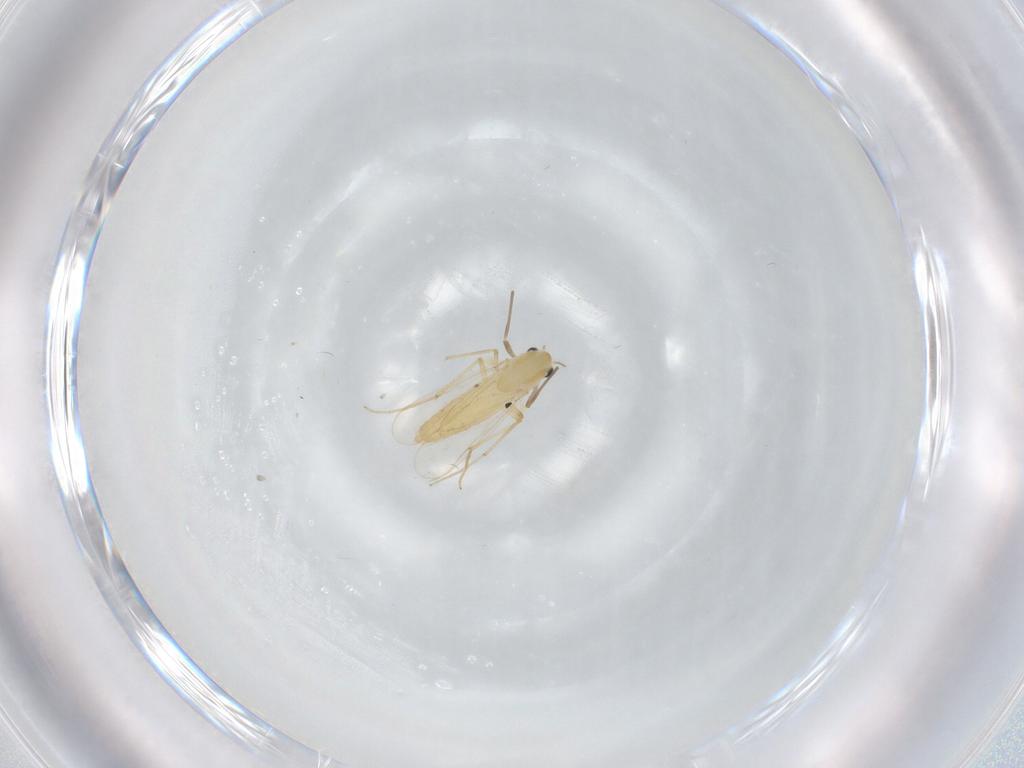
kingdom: Animalia
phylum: Arthropoda
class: Insecta
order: Diptera
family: Chironomidae
